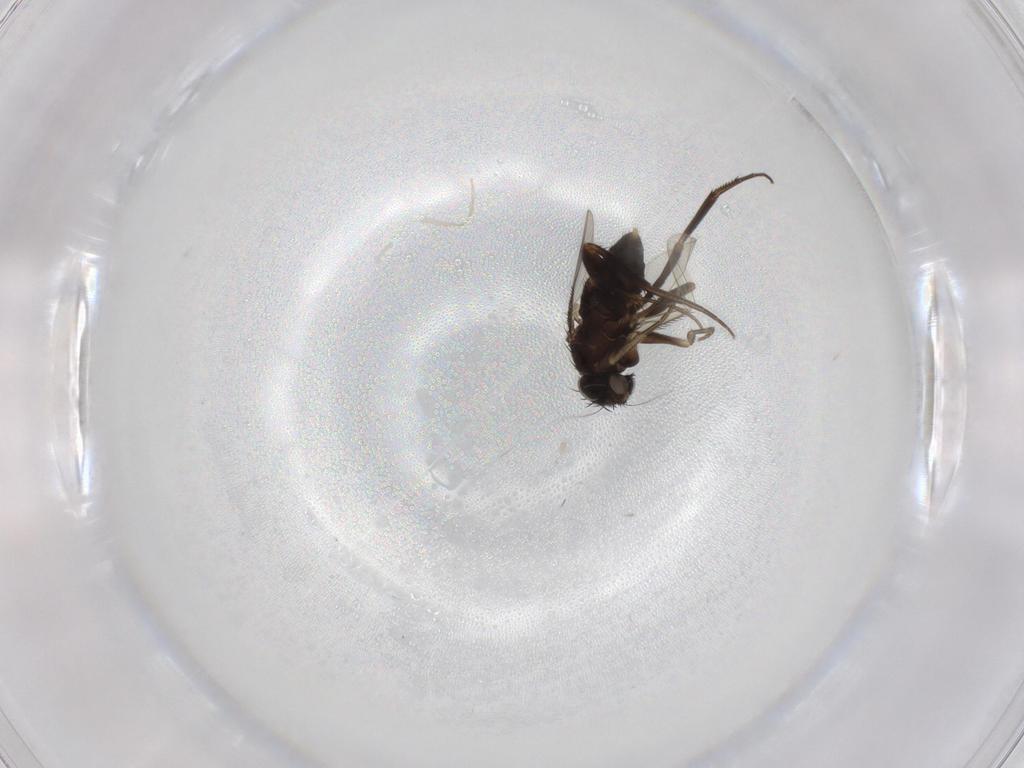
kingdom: Animalia
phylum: Arthropoda
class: Insecta
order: Diptera
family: Phoridae
